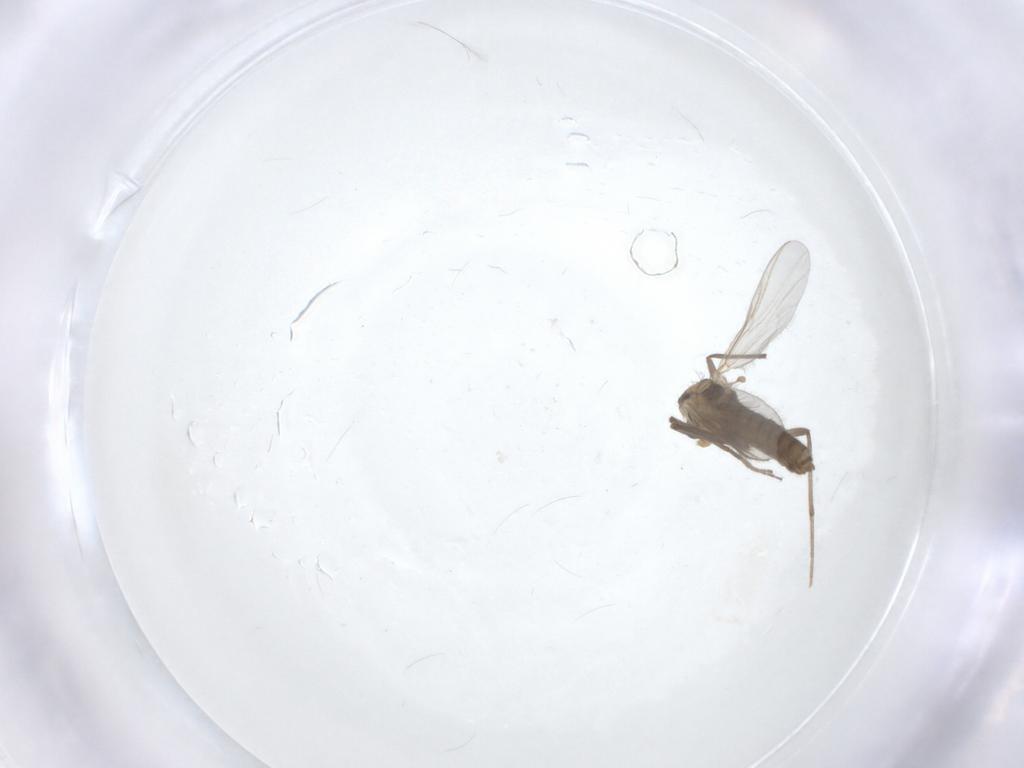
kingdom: Animalia
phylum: Arthropoda
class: Insecta
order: Diptera
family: Chironomidae
